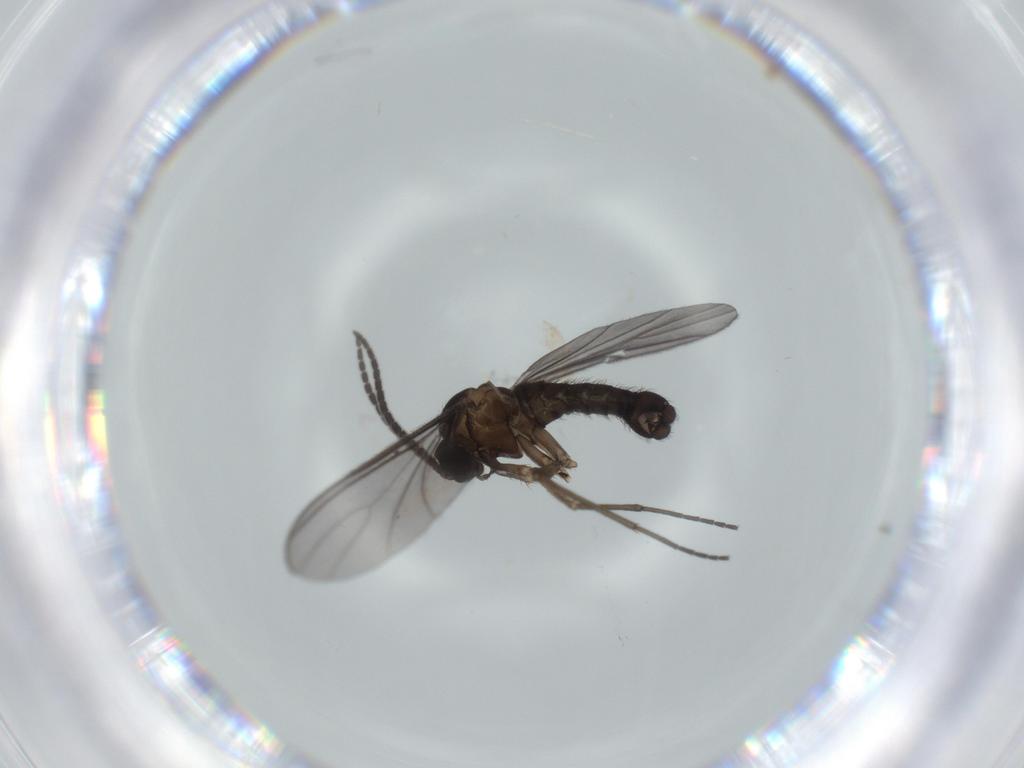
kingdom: Animalia
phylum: Arthropoda
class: Insecta
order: Diptera
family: Sciaridae
